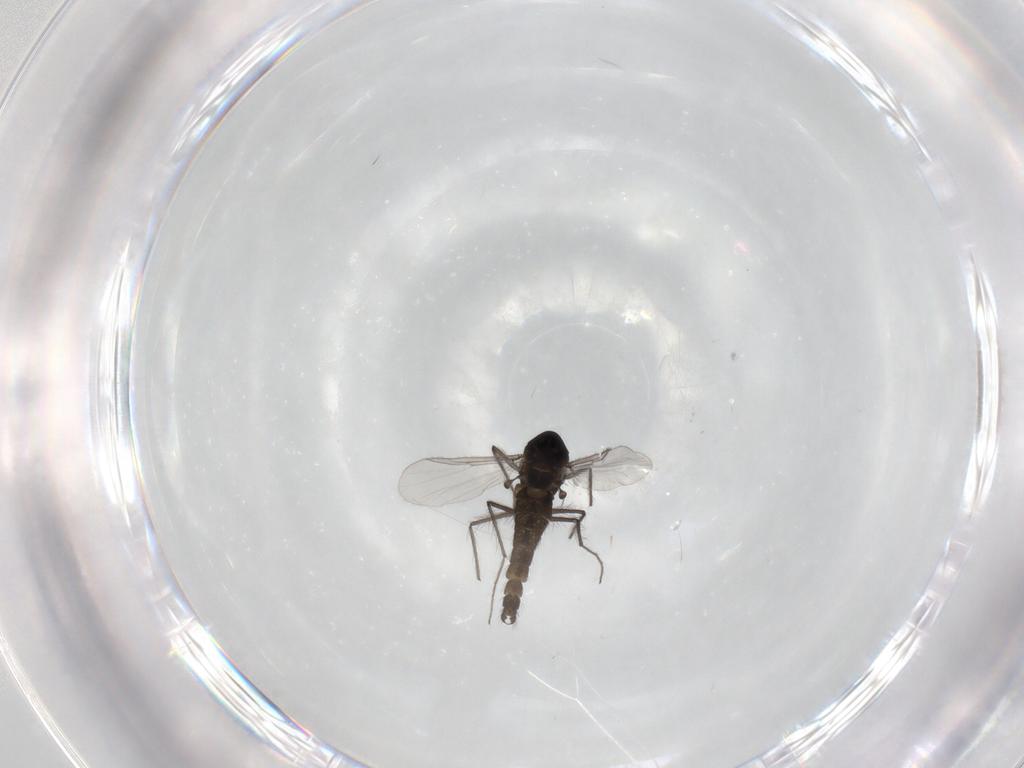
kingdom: Animalia
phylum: Arthropoda
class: Insecta
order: Diptera
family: Chironomidae
